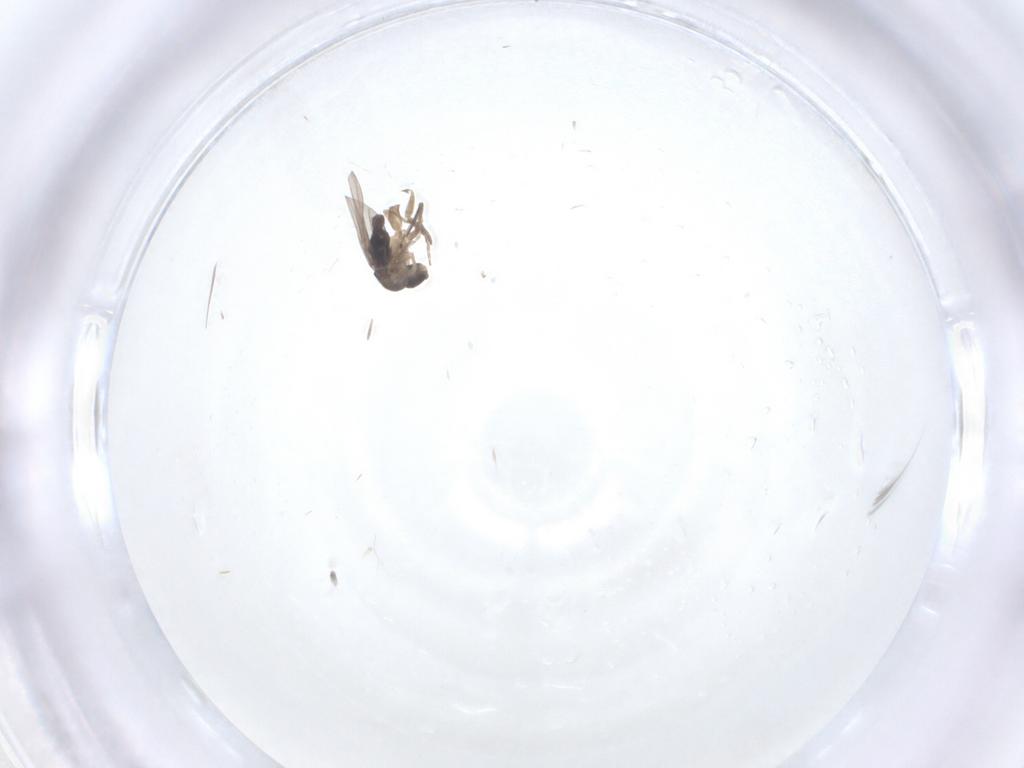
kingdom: Animalia
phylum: Arthropoda
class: Insecta
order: Diptera
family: Phoridae
